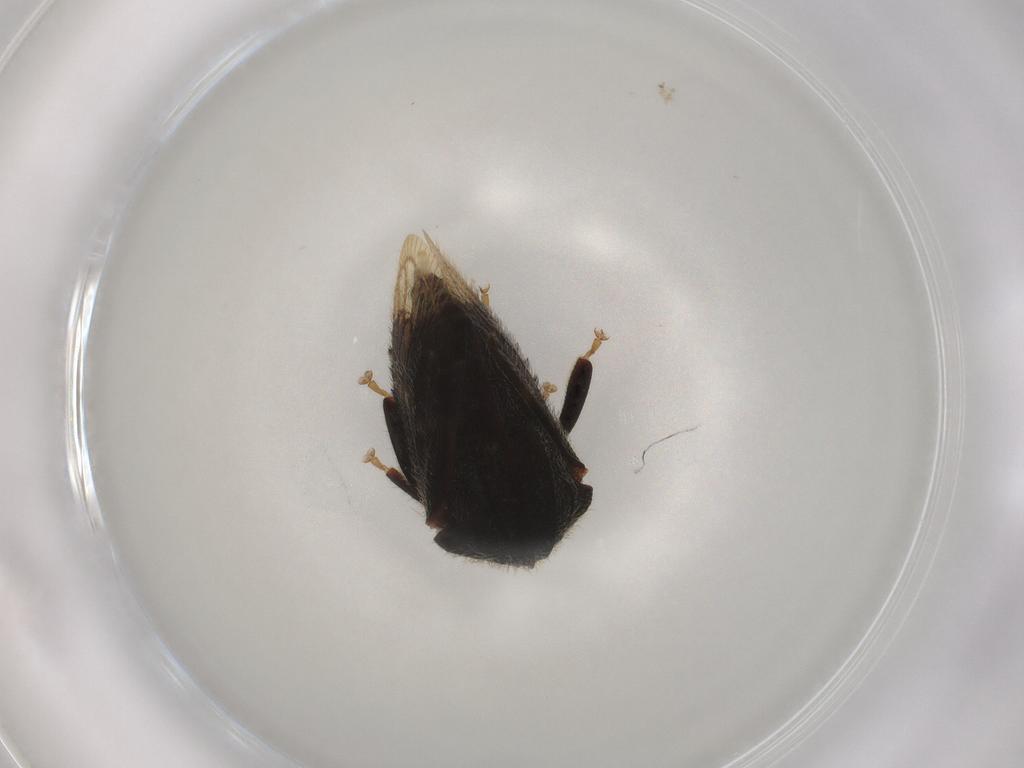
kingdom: Animalia
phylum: Arthropoda
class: Insecta
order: Hemiptera
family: Membracidae
